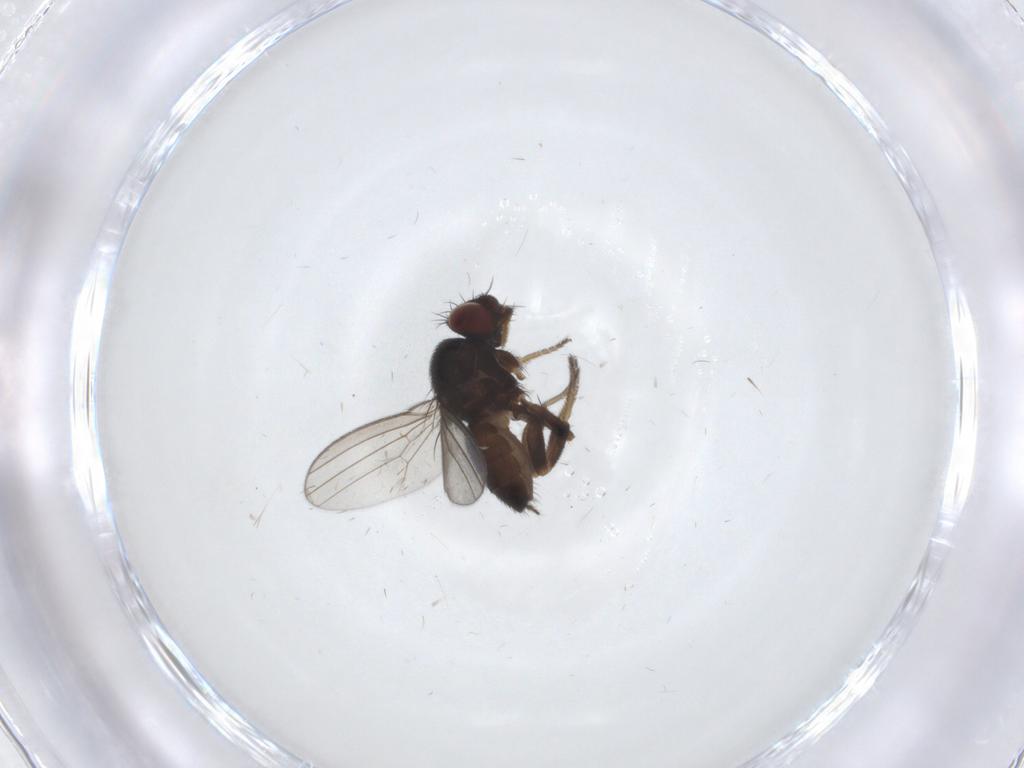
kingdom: Animalia
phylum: Arthropoda
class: Insecta
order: Diptera
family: Milichiidae
